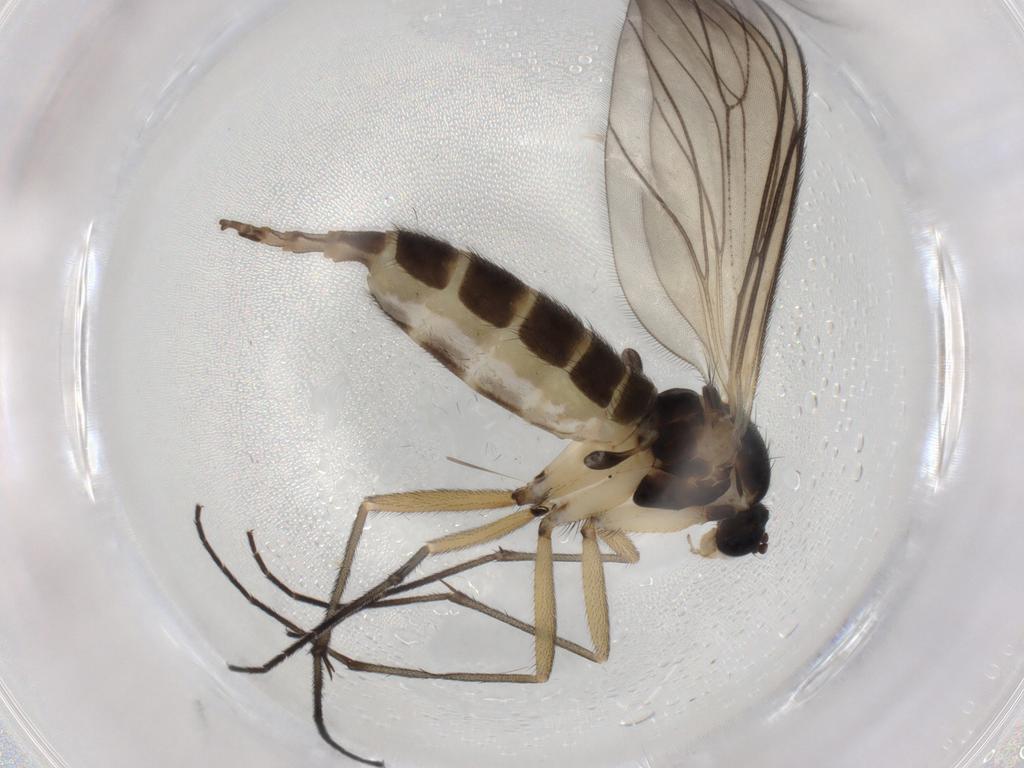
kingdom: Animalia
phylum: Arthropoda
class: Insecta
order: Diptera
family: Sciaridae
